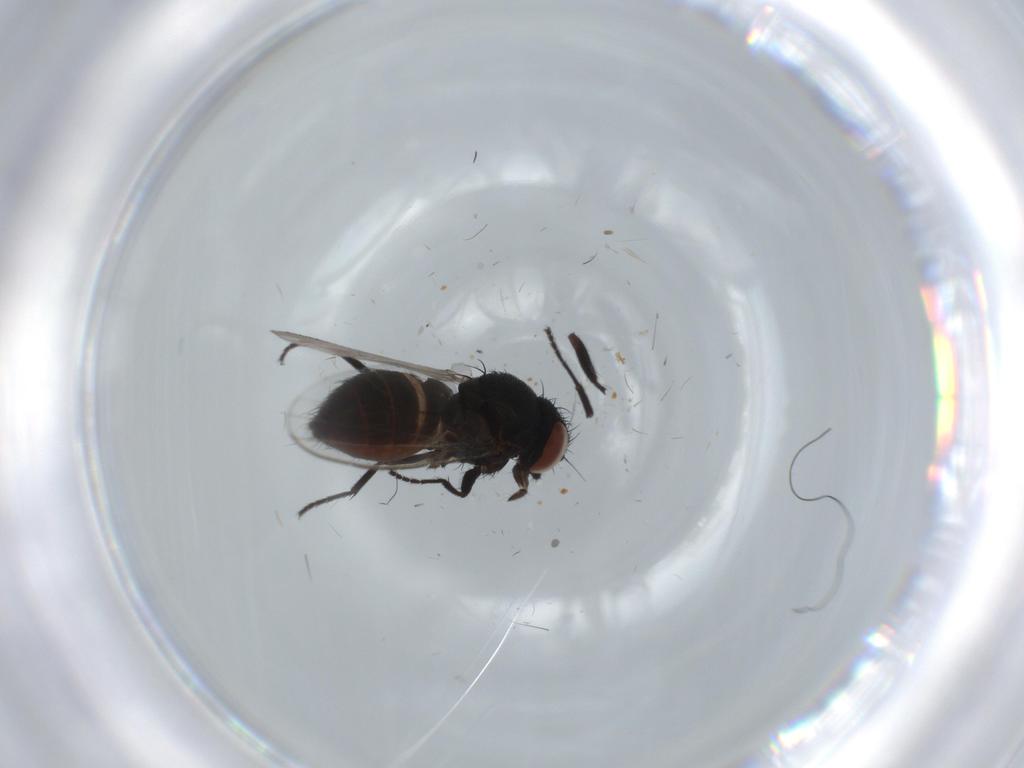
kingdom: Animalia
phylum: Arthropoda
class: Insecta
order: Diptera
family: Milichiidae
